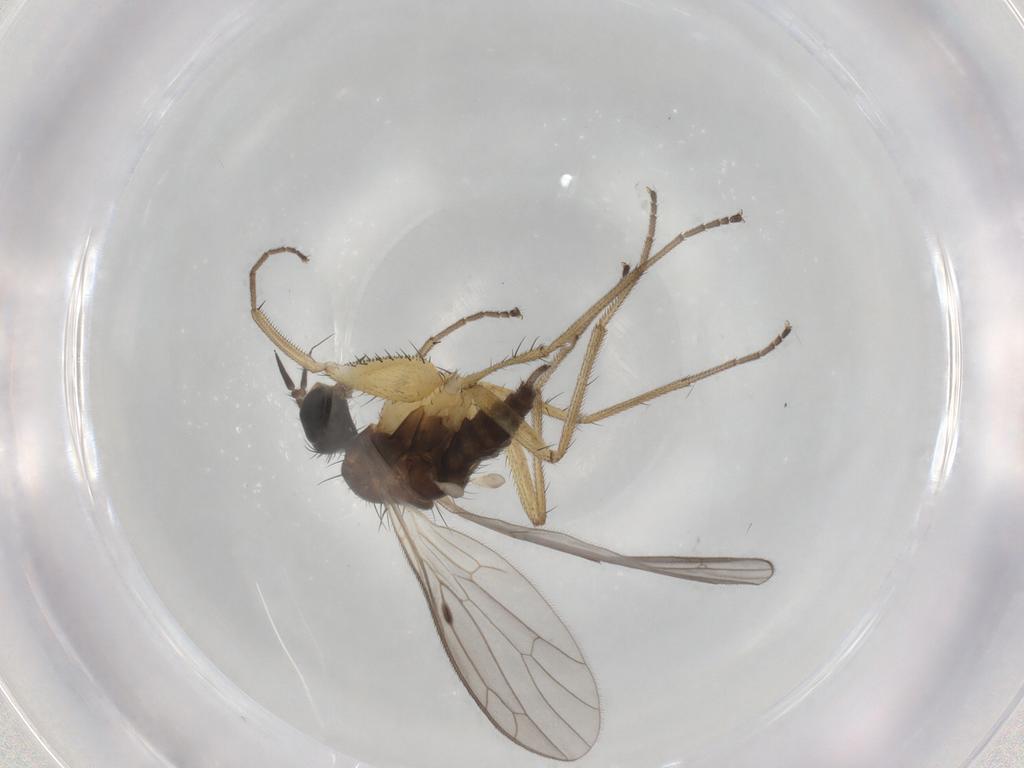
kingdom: Animalia
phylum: Arthropoda
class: Insecta
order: Diptera
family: Empididae
